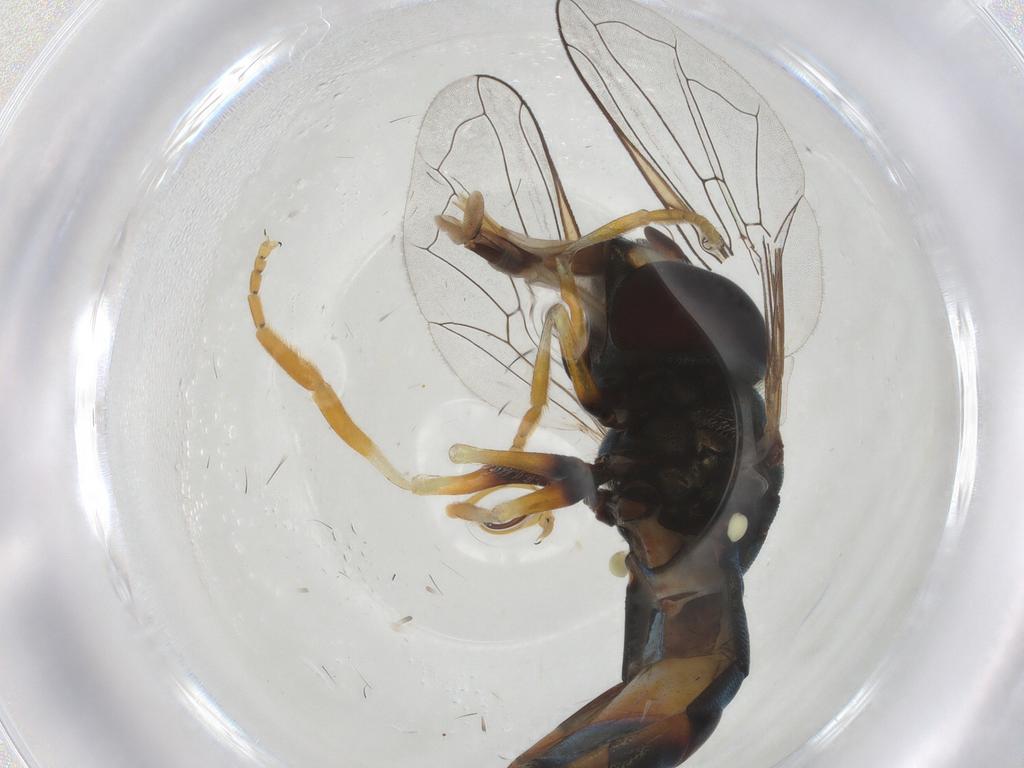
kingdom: Animalia
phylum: Arthropoda
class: Insecta
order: Diptera
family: Syrphidae
